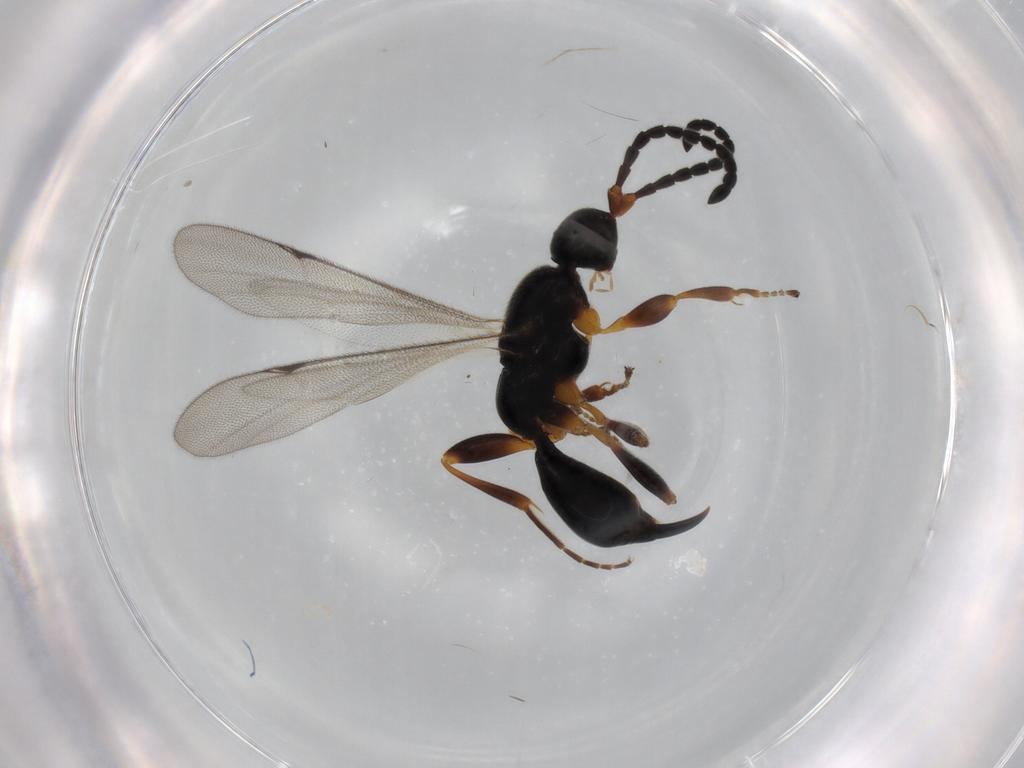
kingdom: Animalia
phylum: Arthropoda
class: Insecta
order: Hymenoptera
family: Proctotrupidae
